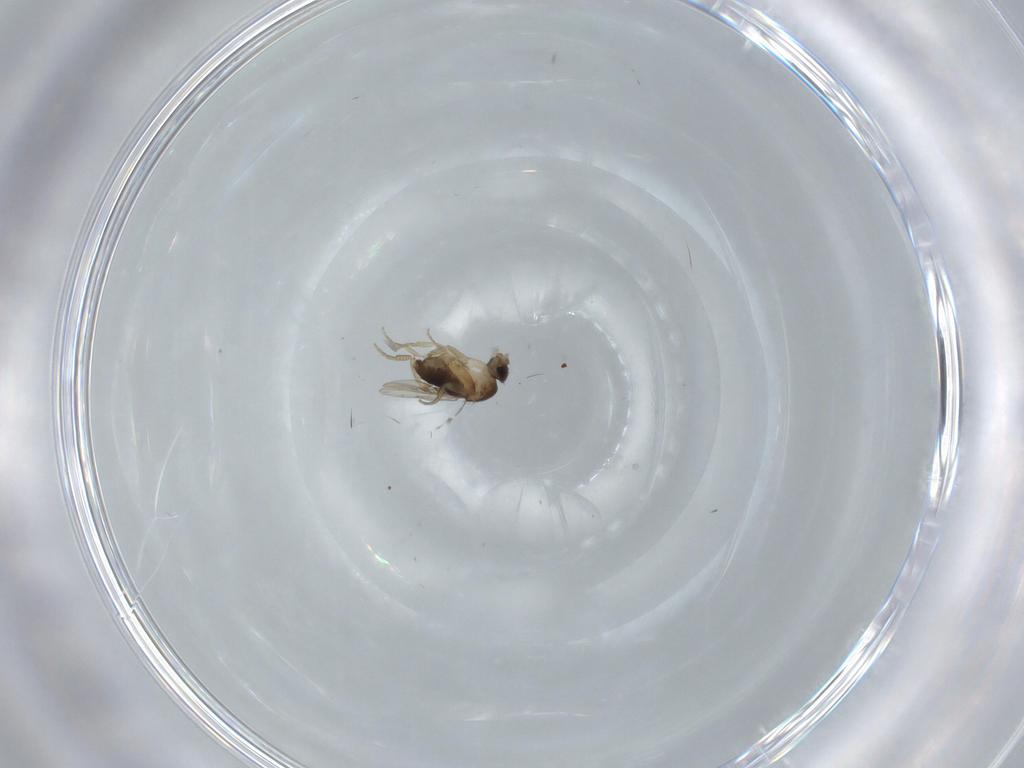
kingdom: Animalia
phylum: Arthropoda
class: Insecta
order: Diptera
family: Phoridae
